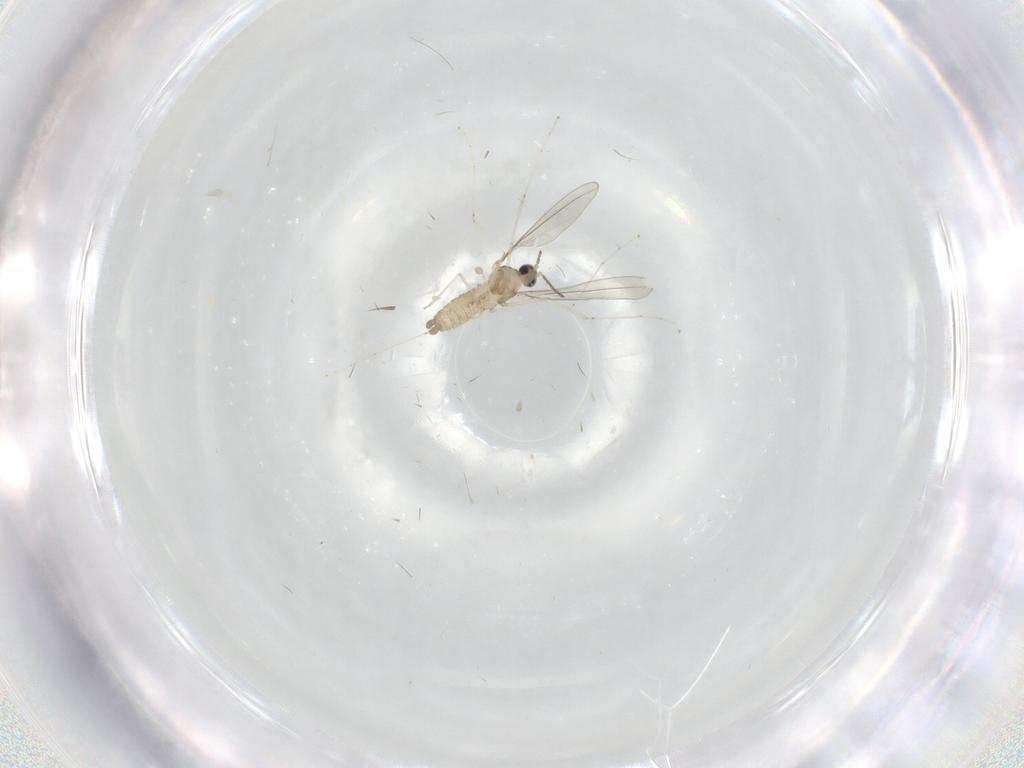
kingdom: Animalia
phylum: Arthropoda
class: Insecta
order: Diptera
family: Cecidomyiidae
